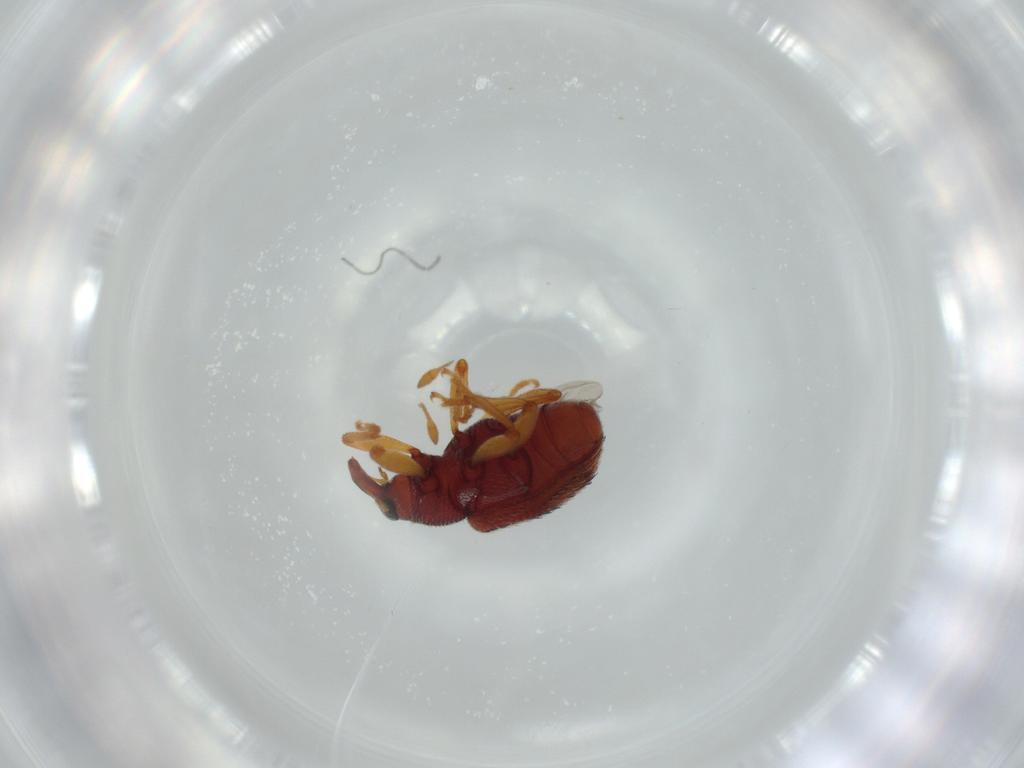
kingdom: Animalia
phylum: Arthropoda
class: Insecta
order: Coleoptera
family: Curculionidae
